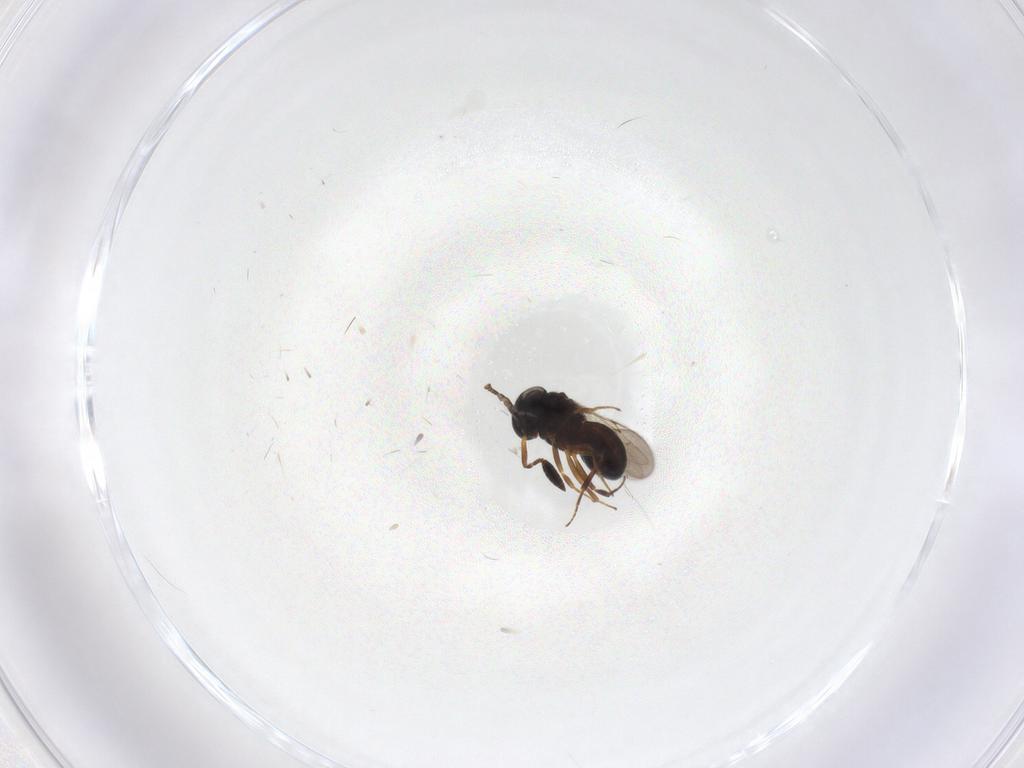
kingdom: Animalia
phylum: Arthropoda
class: Insecta
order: Hymenoptera
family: Scelionidae
